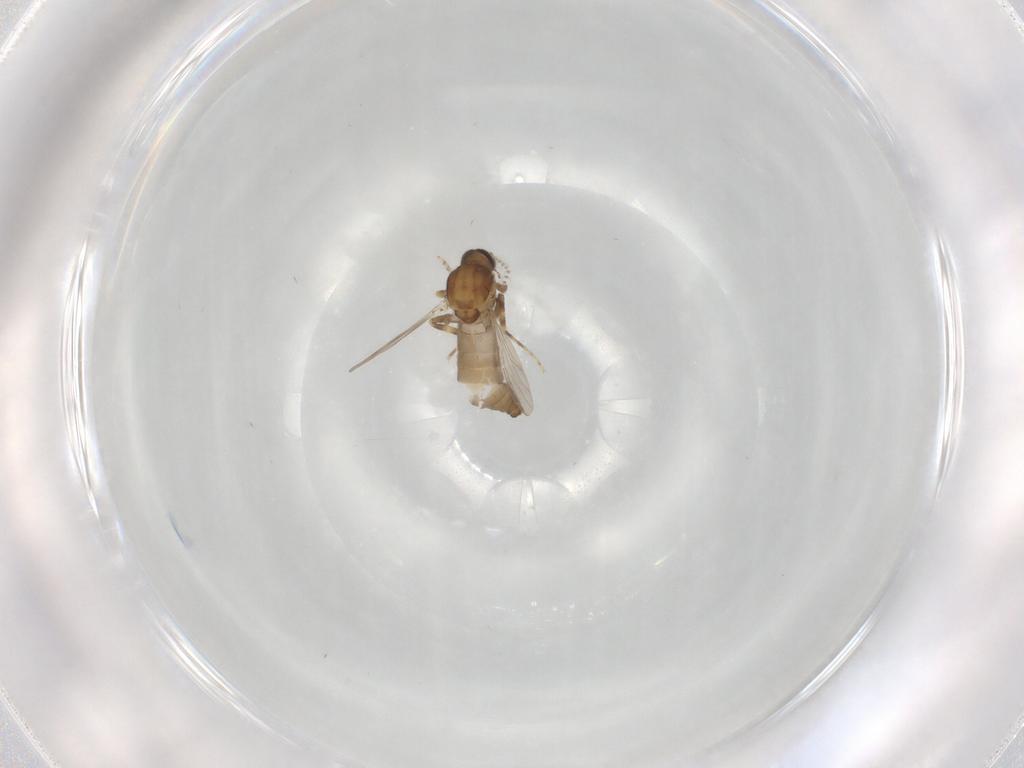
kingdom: Animalia
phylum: Arthropoda
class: Insecta
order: Diptera
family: Ceratopogonidae
